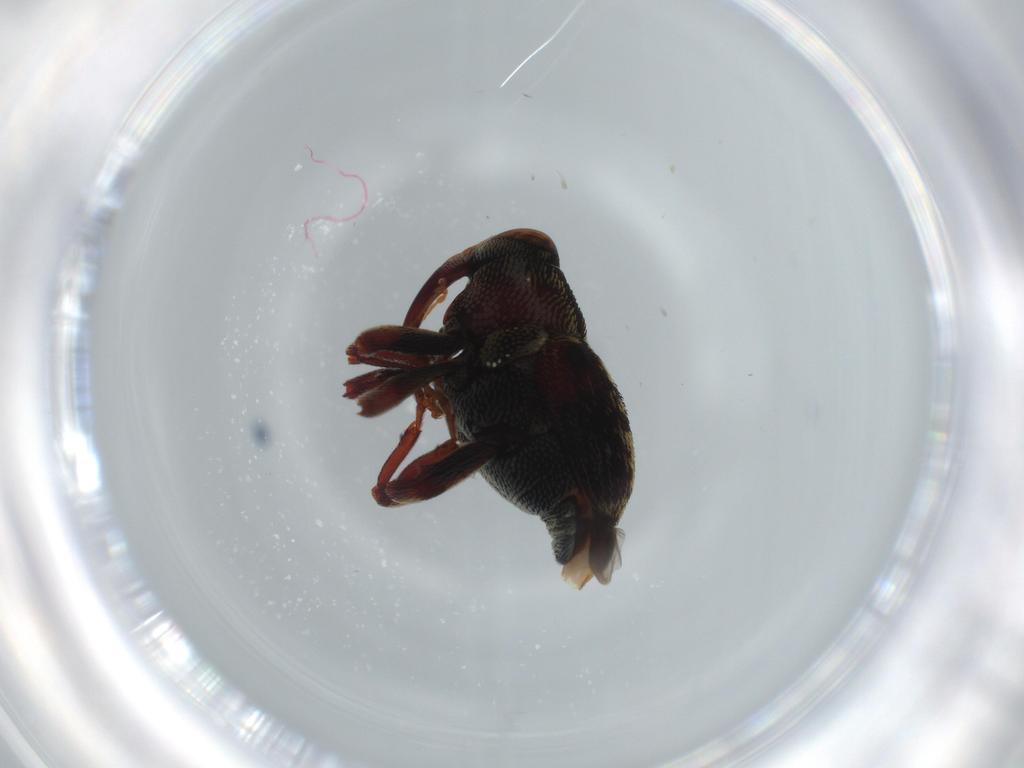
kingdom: Animalia
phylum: Arthropoda
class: Insecta
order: Coleoptera
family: Curculionidae
